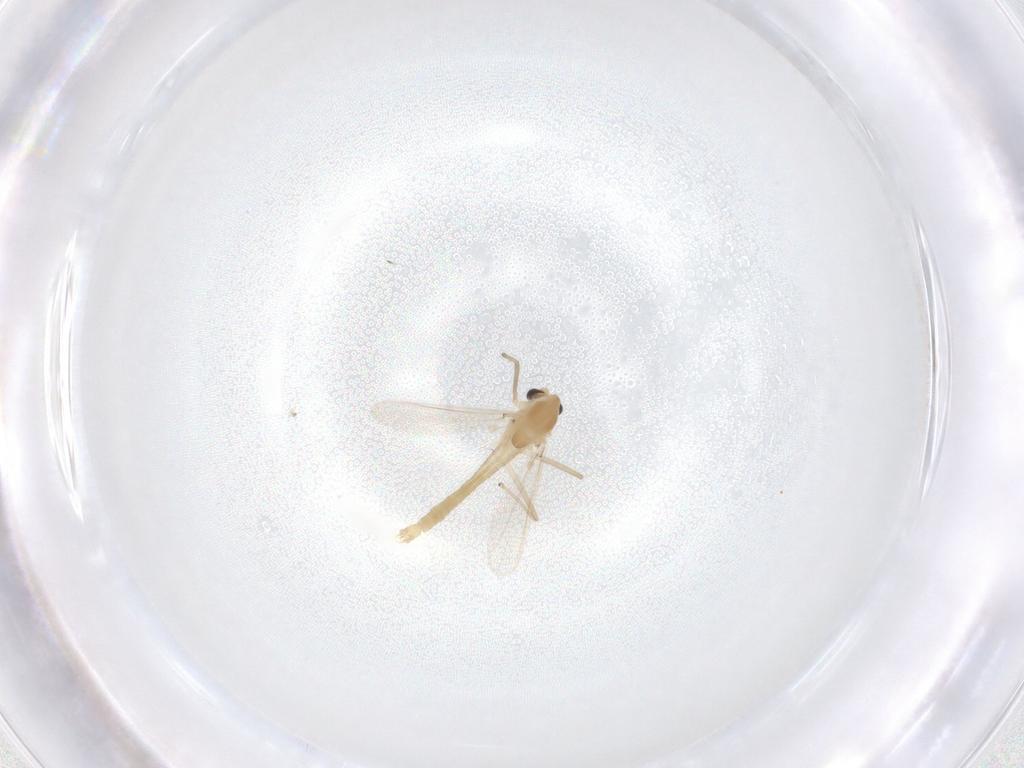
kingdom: Animalia
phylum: Arthropoda
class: Insecta
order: Diptera
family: Chironomidae
